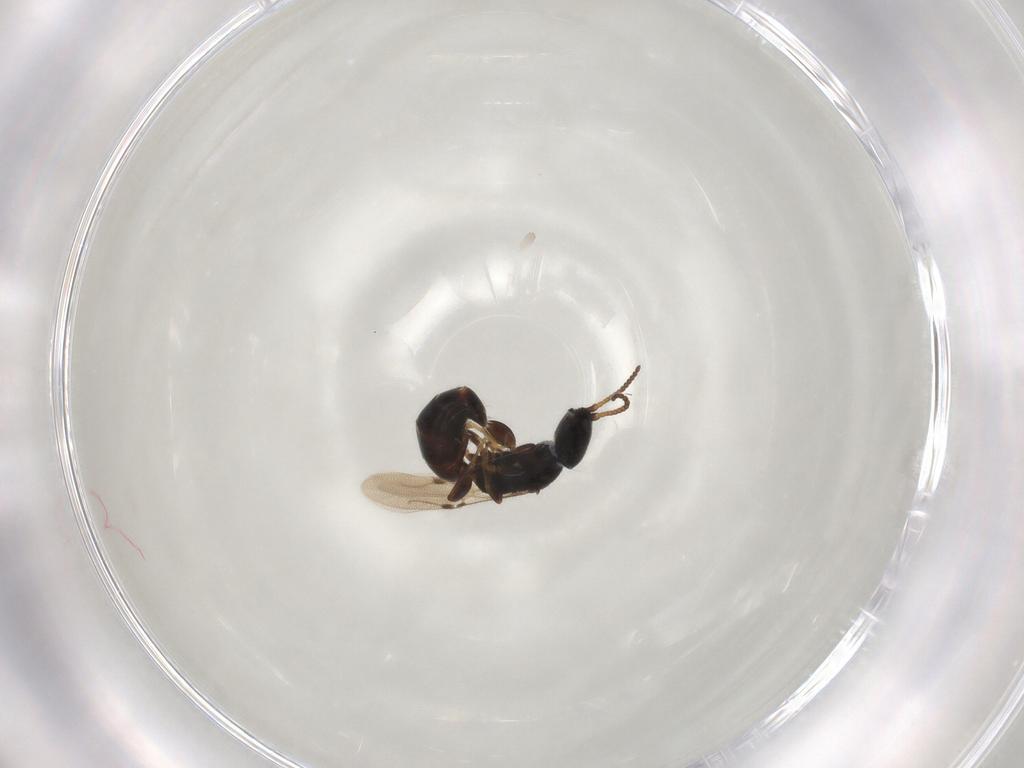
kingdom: Animalia
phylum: Arthropoda
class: Insecta
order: Hymenoptera
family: Bethylidae
